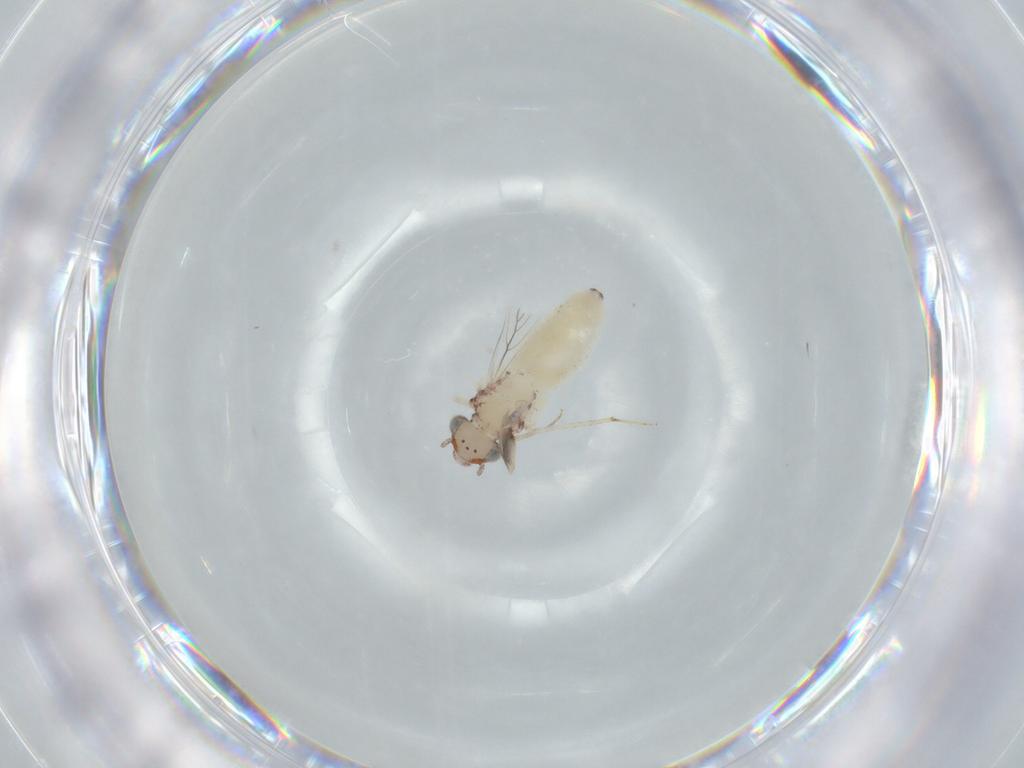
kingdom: Animalia
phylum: Arthropoda
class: Insecta
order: Psocodea
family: Lepidopsocidae
